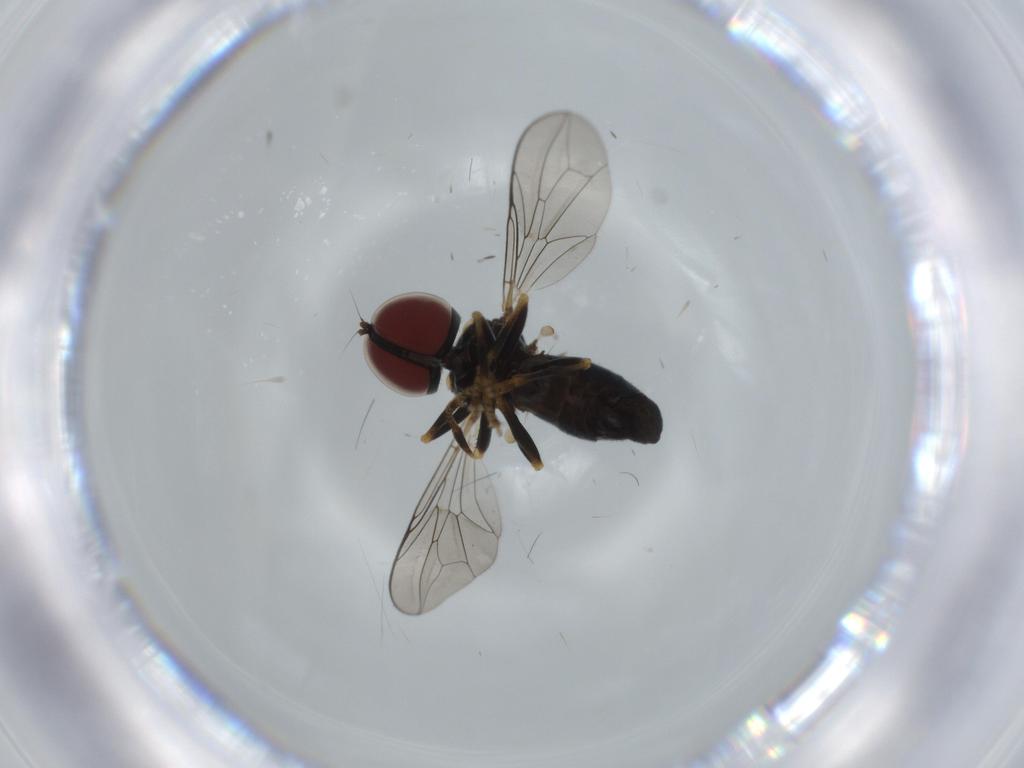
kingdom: Animalia
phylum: Arthropoda
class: Insecta
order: Diptera
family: Pipunculidae
